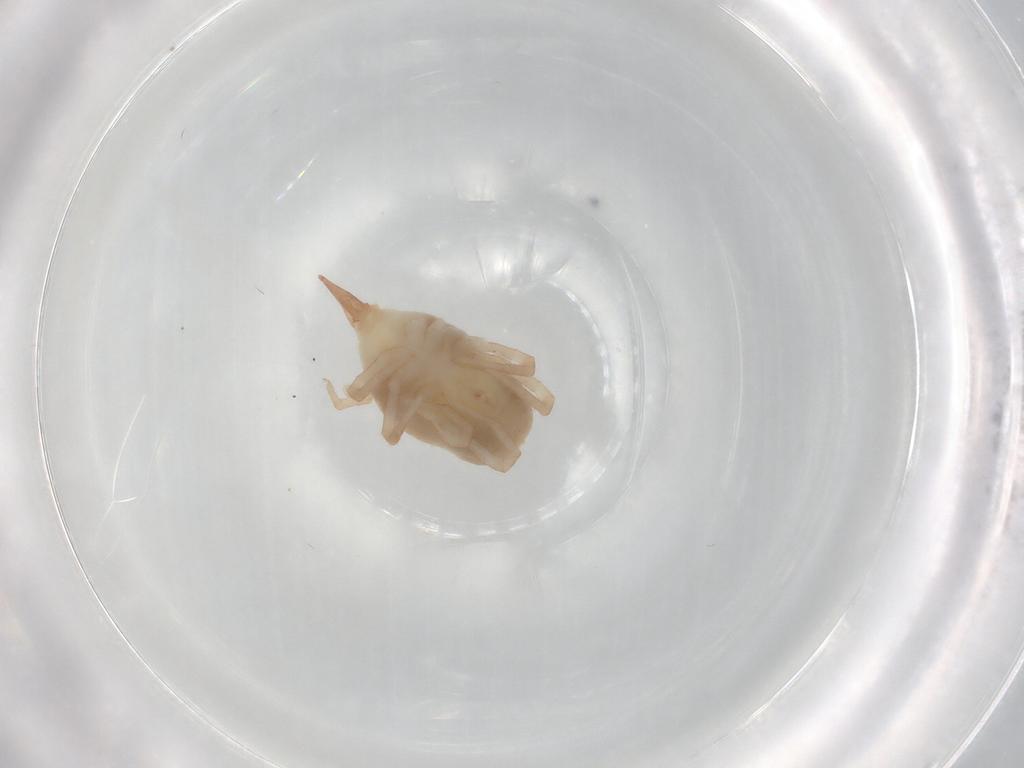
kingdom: Animalia
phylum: Arthropoda
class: Arachnida
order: Trombidiformes
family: Bdellidae
